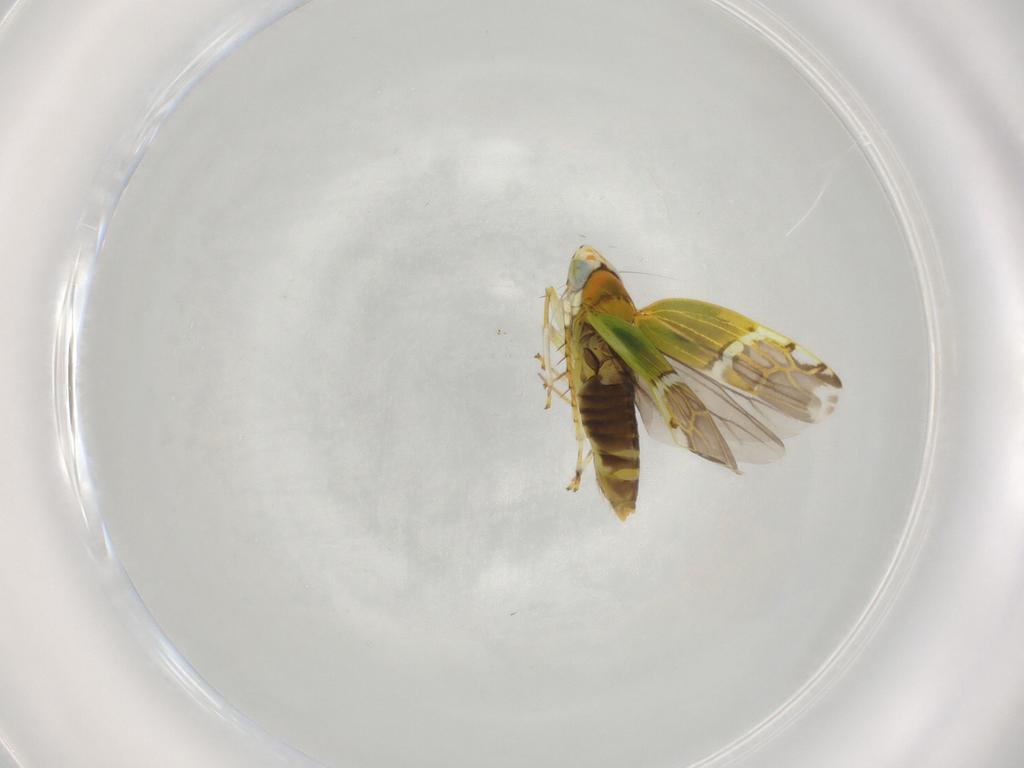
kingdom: Animalia
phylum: Arthropoda
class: Insecta
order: Hemiptera
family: Cicadellidae
